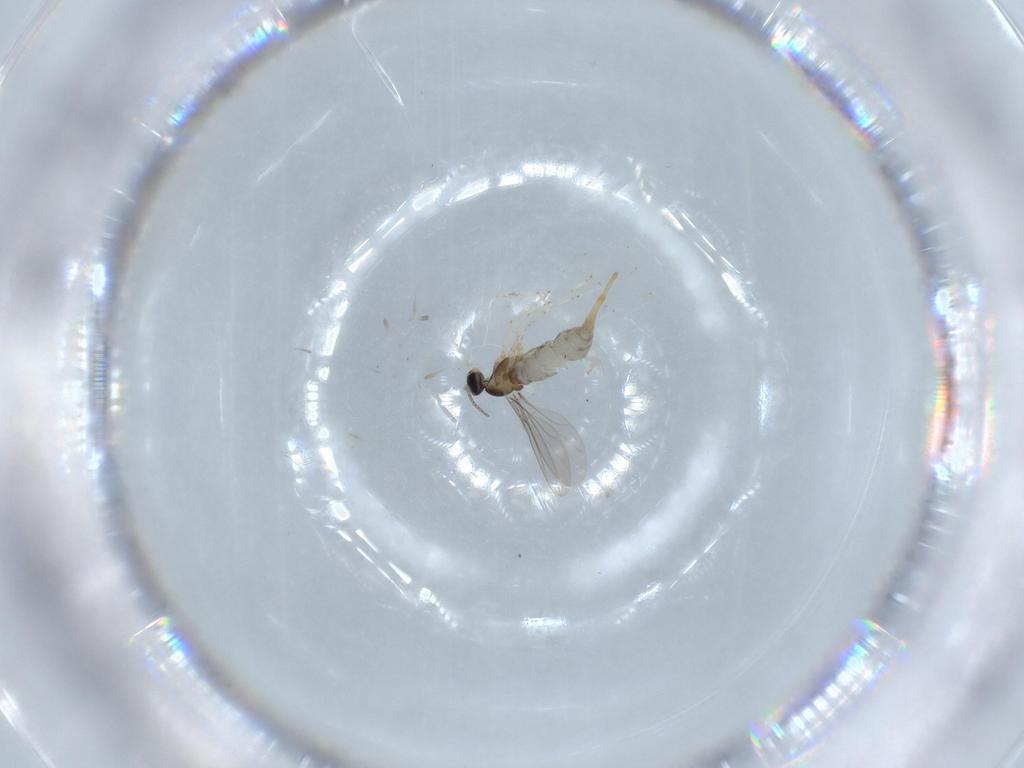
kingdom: Animalia
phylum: Arthropoda
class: Insecta
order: Diptera
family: Cecidomyiidae
